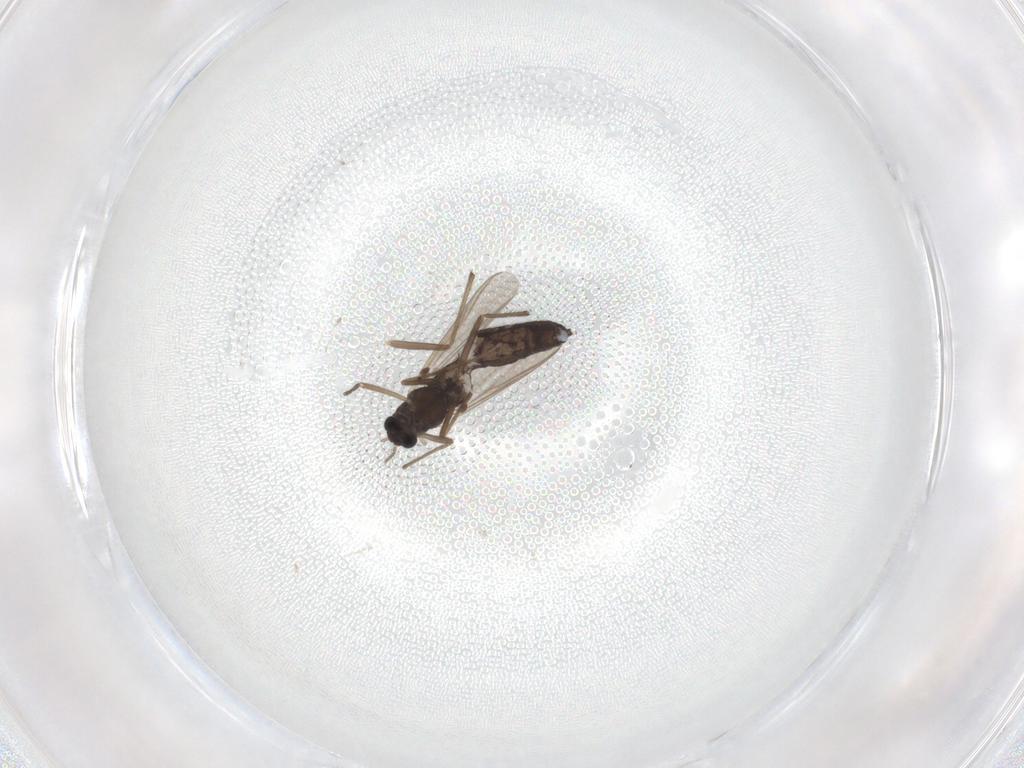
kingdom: Animalia
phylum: Arthropoda
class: Insecta
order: Diptera
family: Chironomidae
